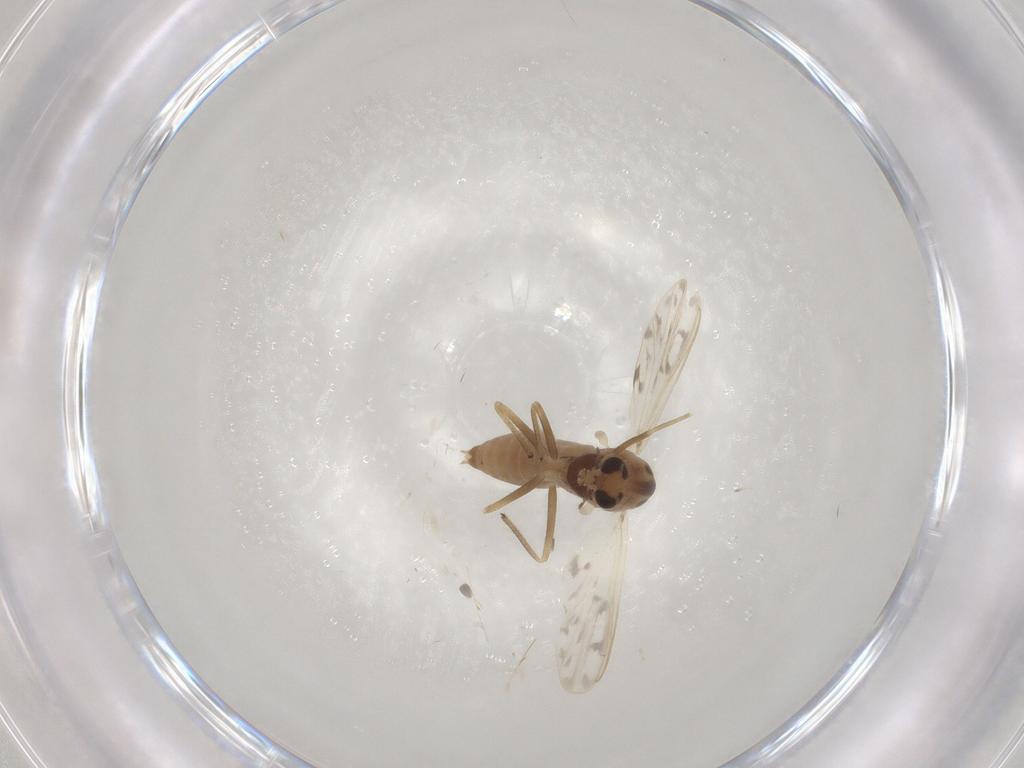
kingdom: Animalia
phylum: Arthropoda
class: Insecta
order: Diptera
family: Chironomidae
